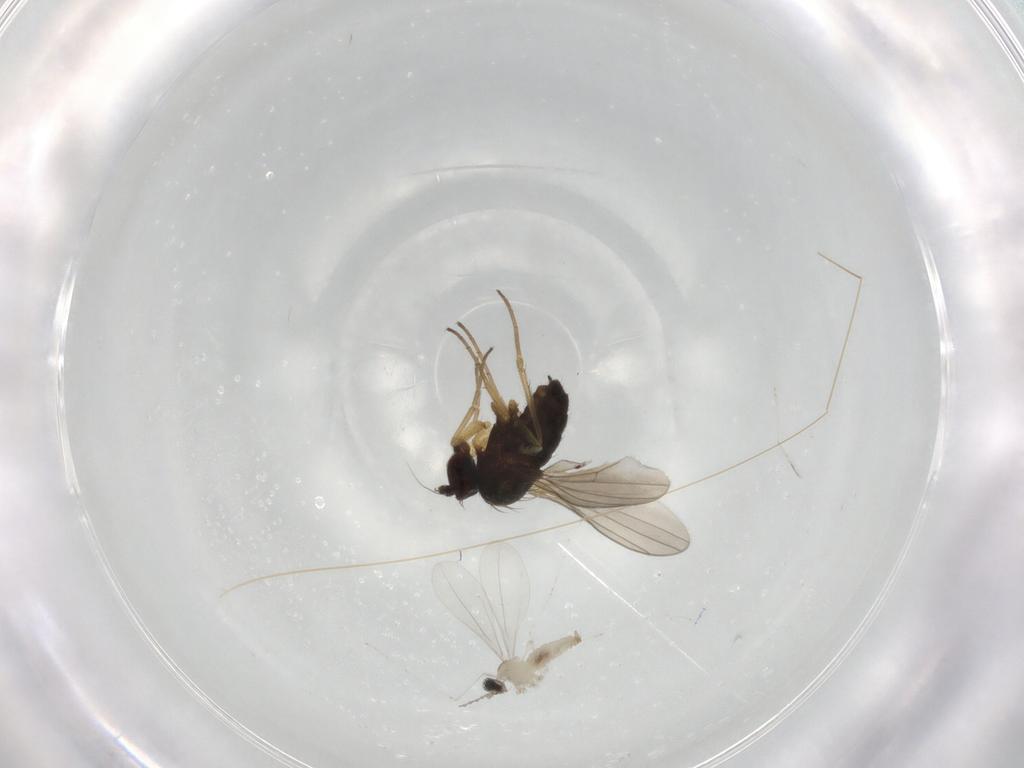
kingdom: Animalia
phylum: Arthropoda
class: Insecta
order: Diptera
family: Dolichopodidae
